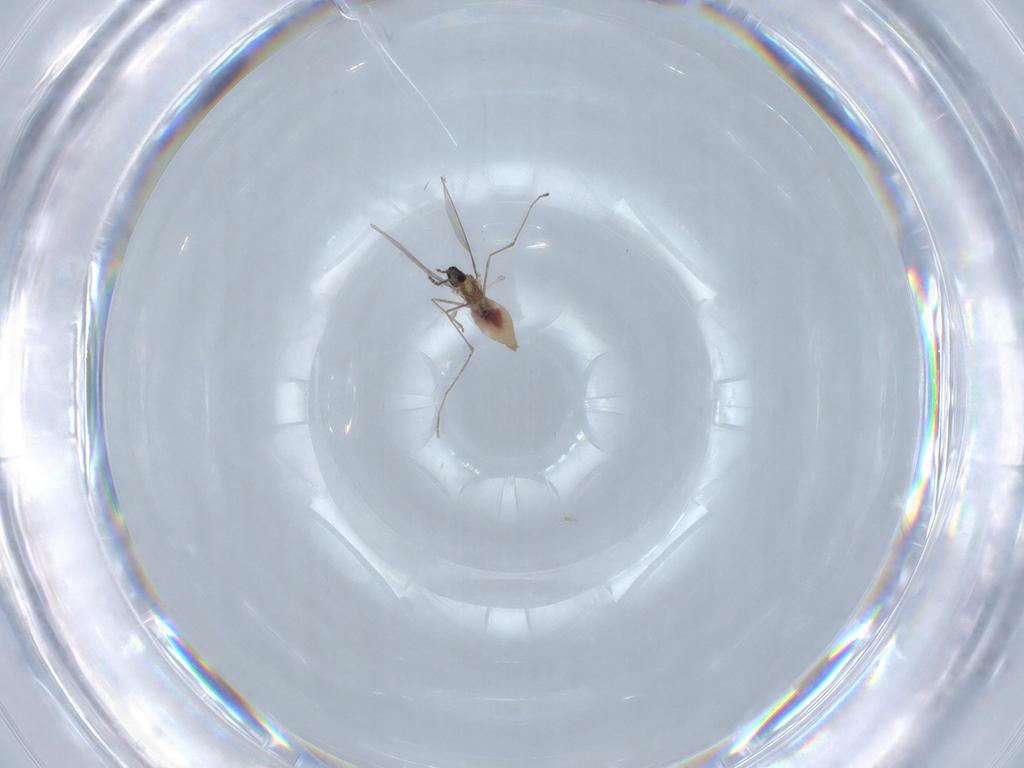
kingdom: Animalia
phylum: Arthropoda
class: Insecta
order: Diptera
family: Cecidomyiidae
